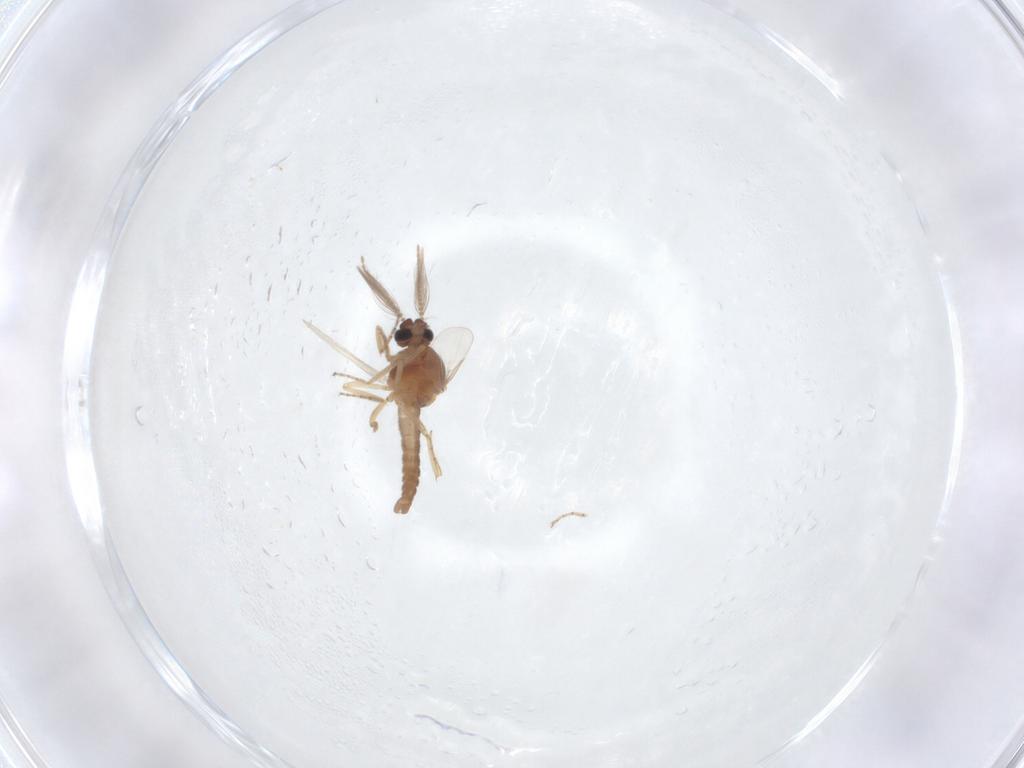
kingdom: Animalia
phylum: Arthropoda
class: Insecta
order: Diptera
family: Ceratopogonidae
